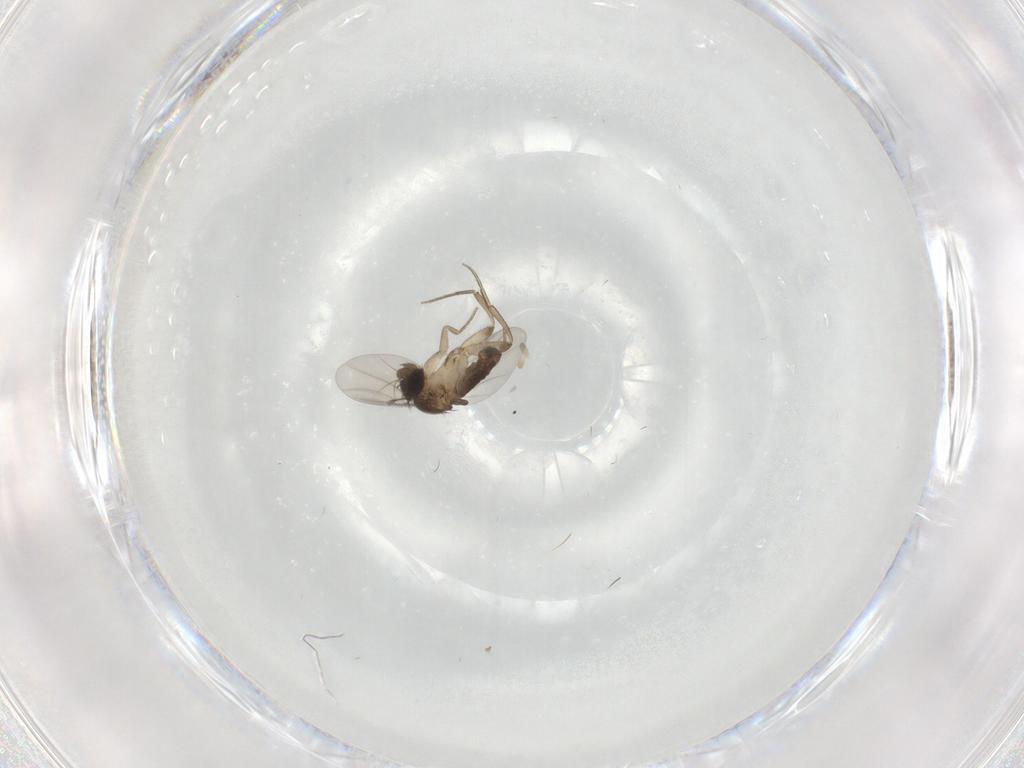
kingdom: Animalia
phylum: Arthropoda
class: Insecta
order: Diptera
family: Phoridae
